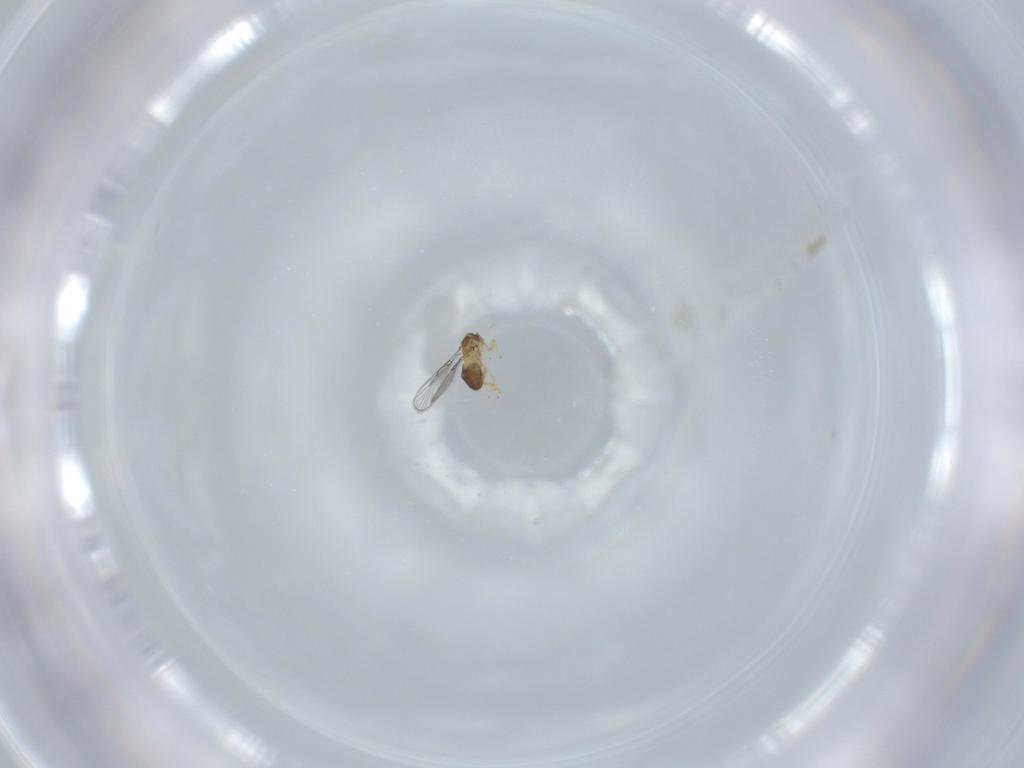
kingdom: Animalia
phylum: Arthropoda
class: Insecta
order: Hymenoptera
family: Trichogrammatidae
